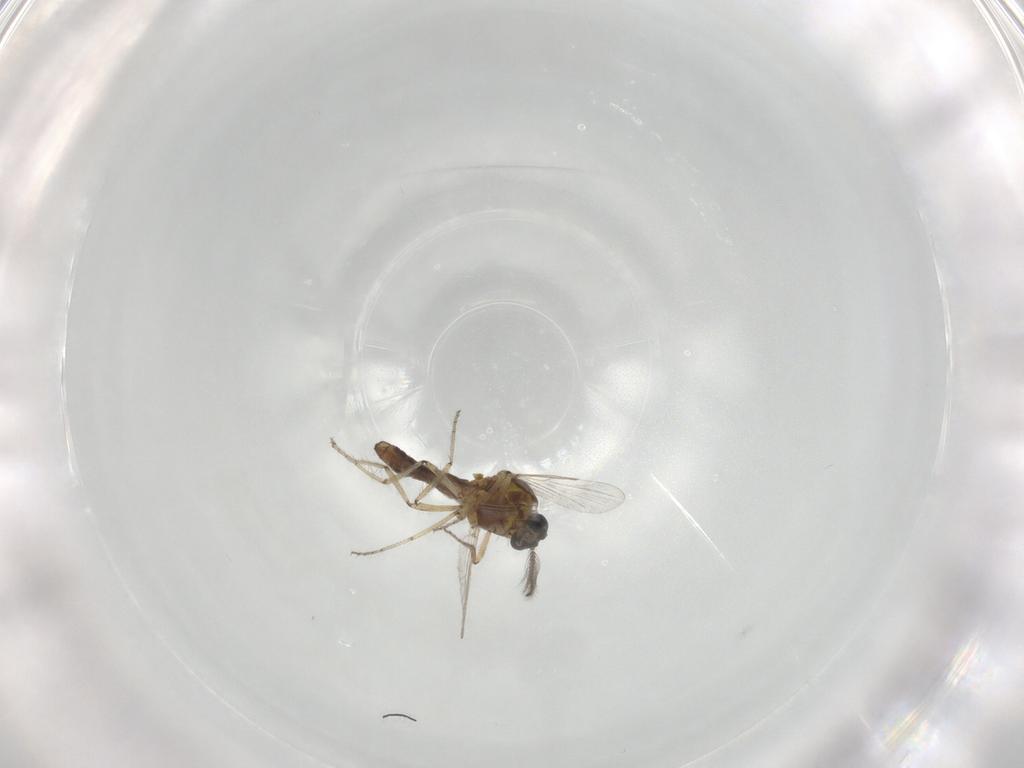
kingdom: Animalia
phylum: Arthropoda
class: Insecta
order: Diptera
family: Ceratopogonidae
